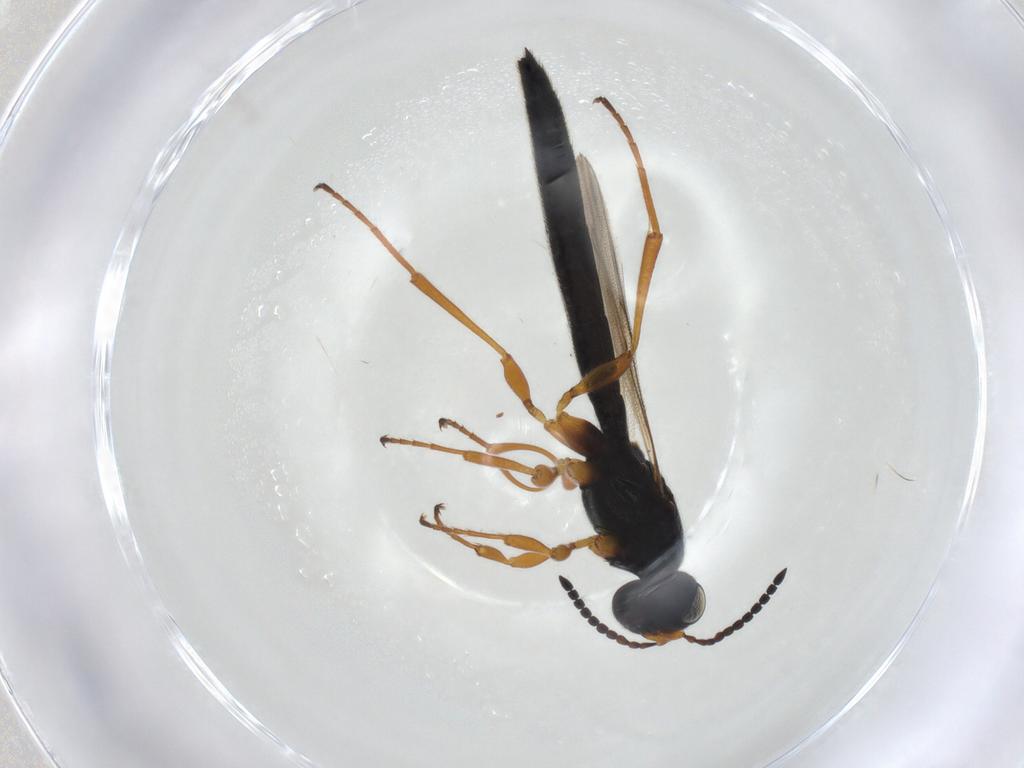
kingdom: Animalia
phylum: Arthropoda
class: Insecta
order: Hymenoptera
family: Scelionidae
